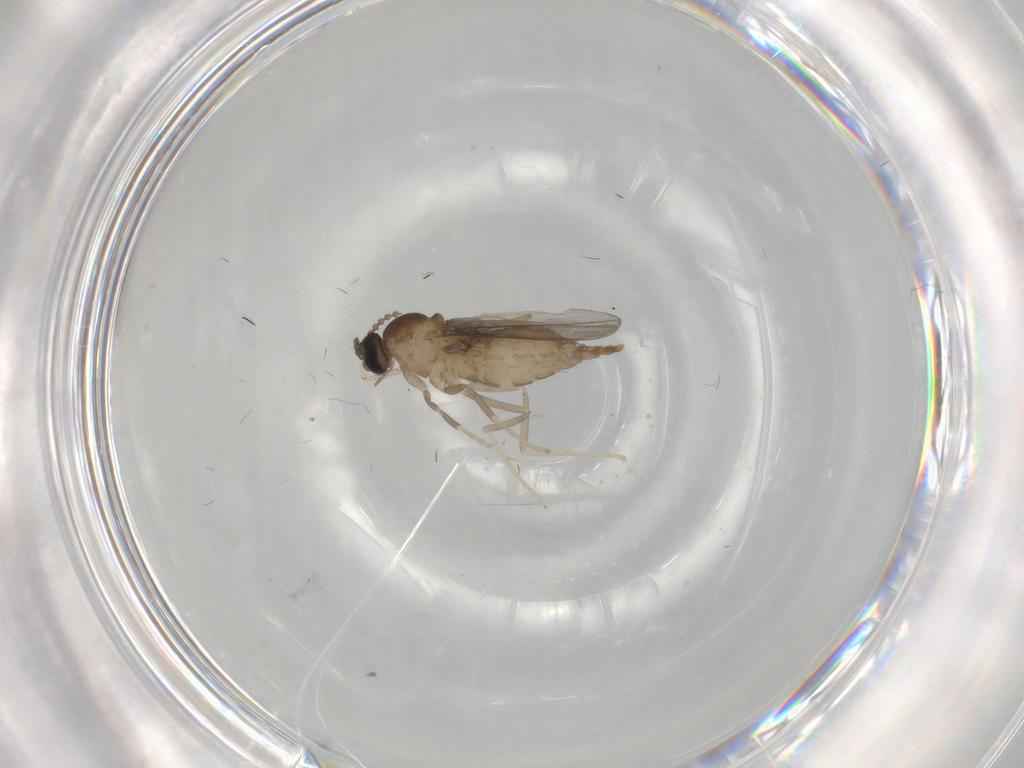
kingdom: Animalia
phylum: Arthropoda
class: Insecta
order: Diptera
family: Psychodidae
